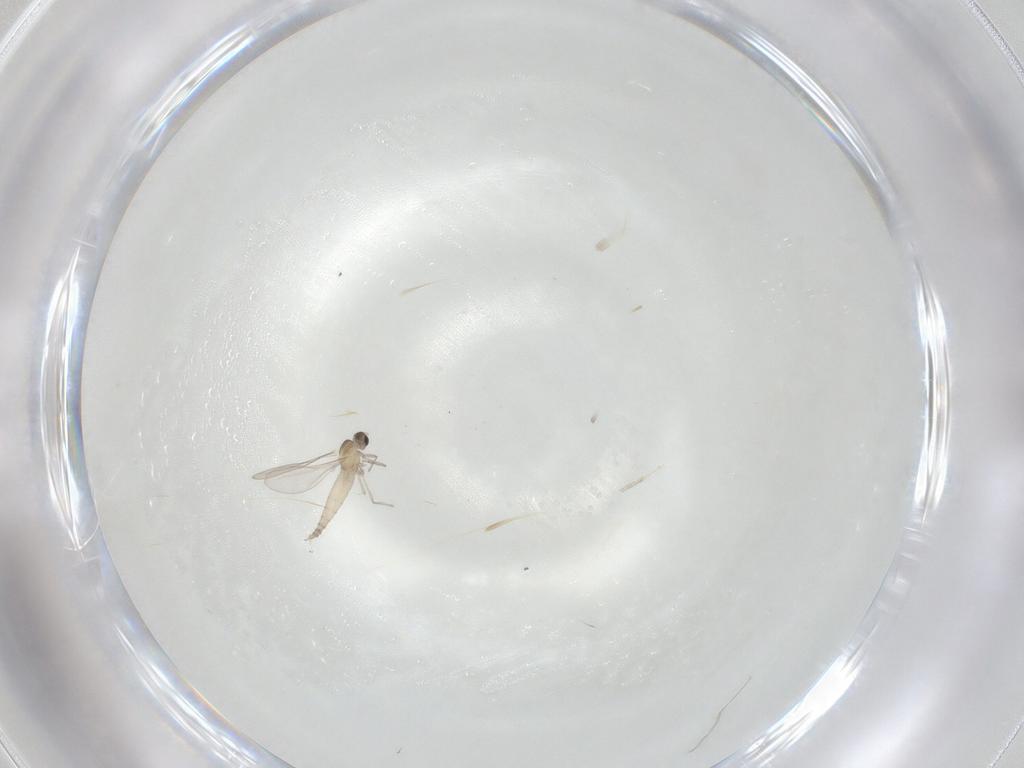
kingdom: Animalia
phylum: Arthropoda
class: Insecta
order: Diptera
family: Cecidomyiidae
